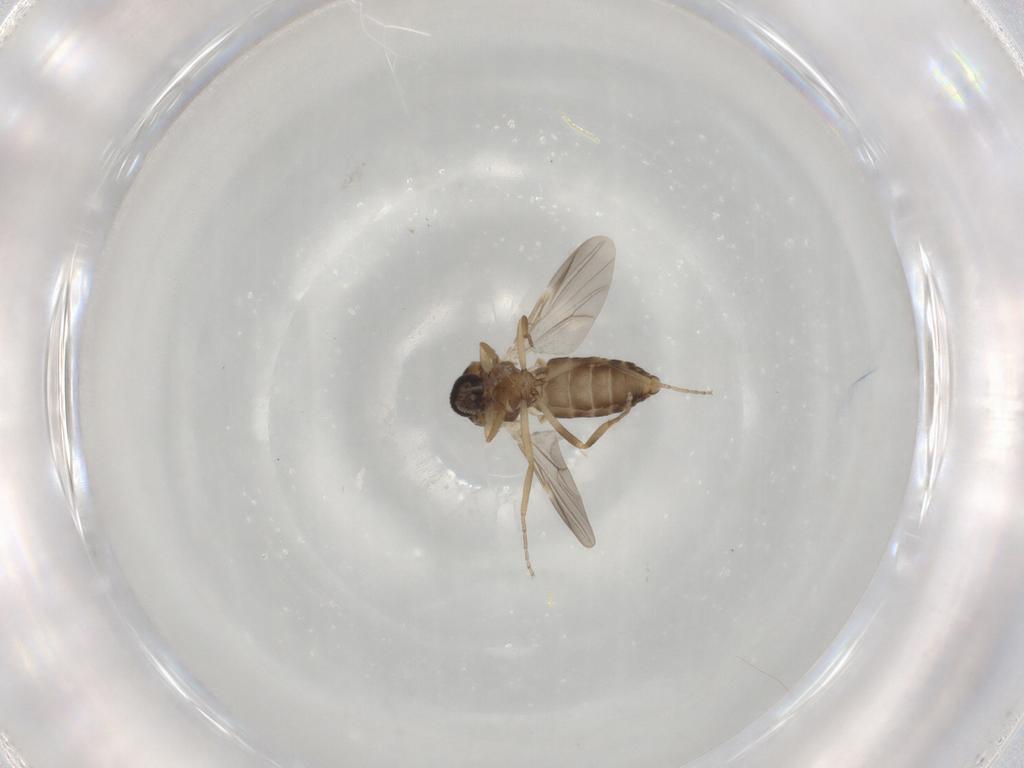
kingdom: Animalia
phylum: Arthropoda
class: Insecta
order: Diptera
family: Ceratopogonidae
